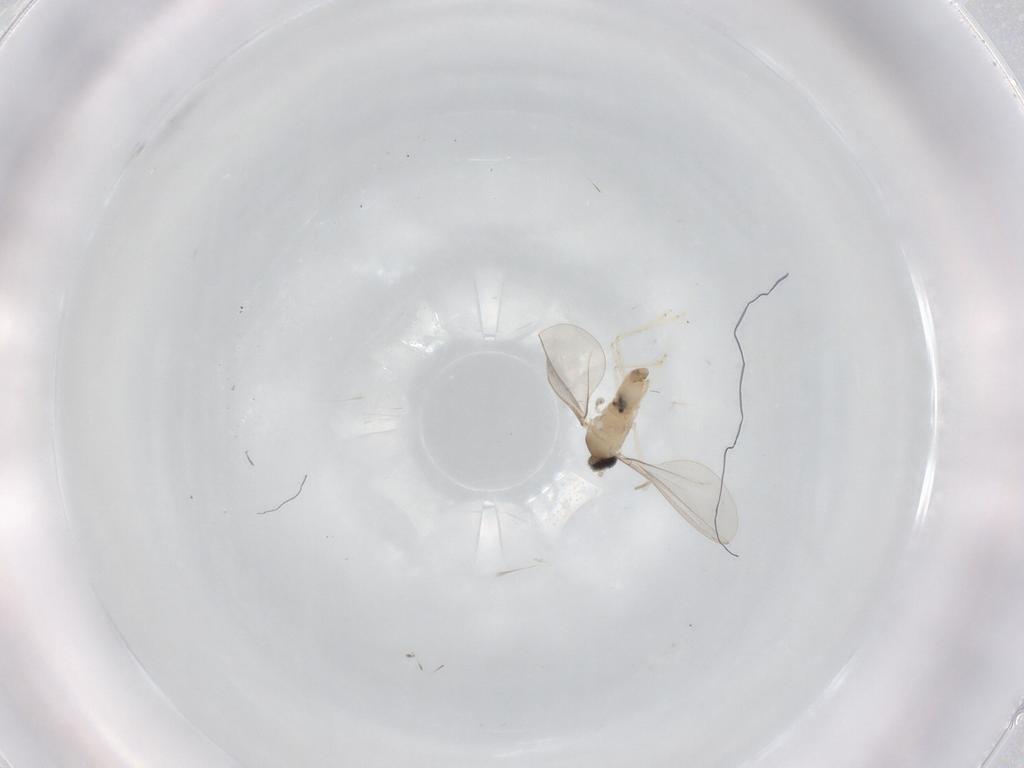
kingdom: Animalia
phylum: Arthropoda
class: Insecta
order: Diptera
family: Cecidomyiidae
